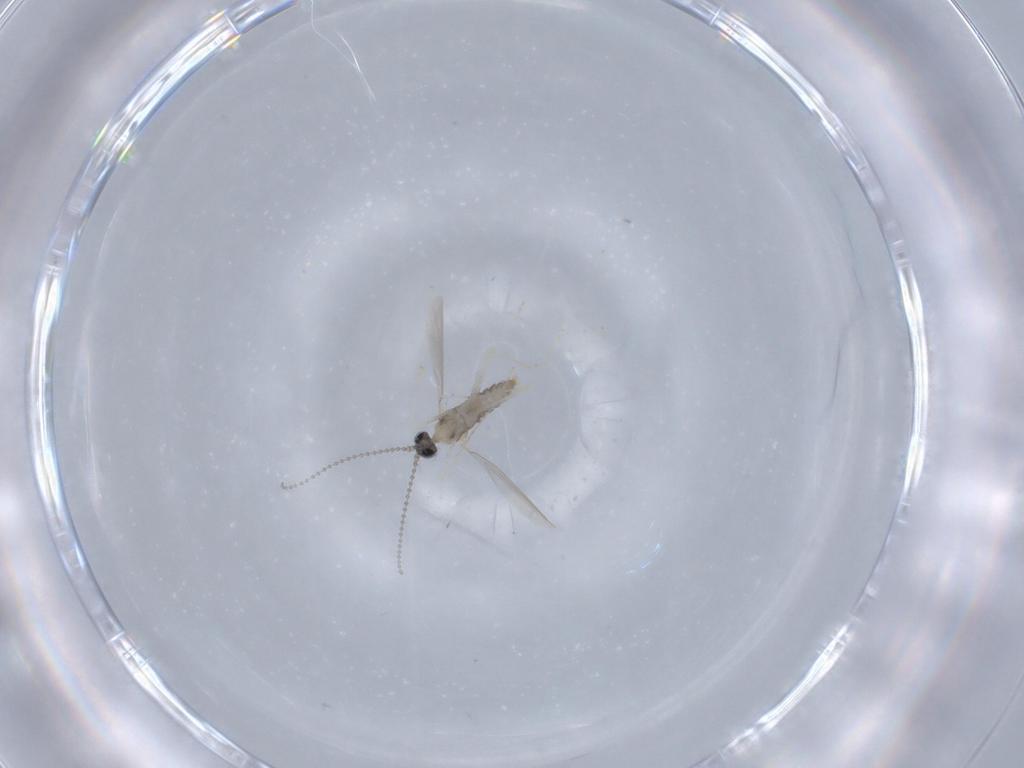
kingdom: Animalia
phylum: Arthropoda
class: Insecta
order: Diptera
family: Cecidomyiidae
